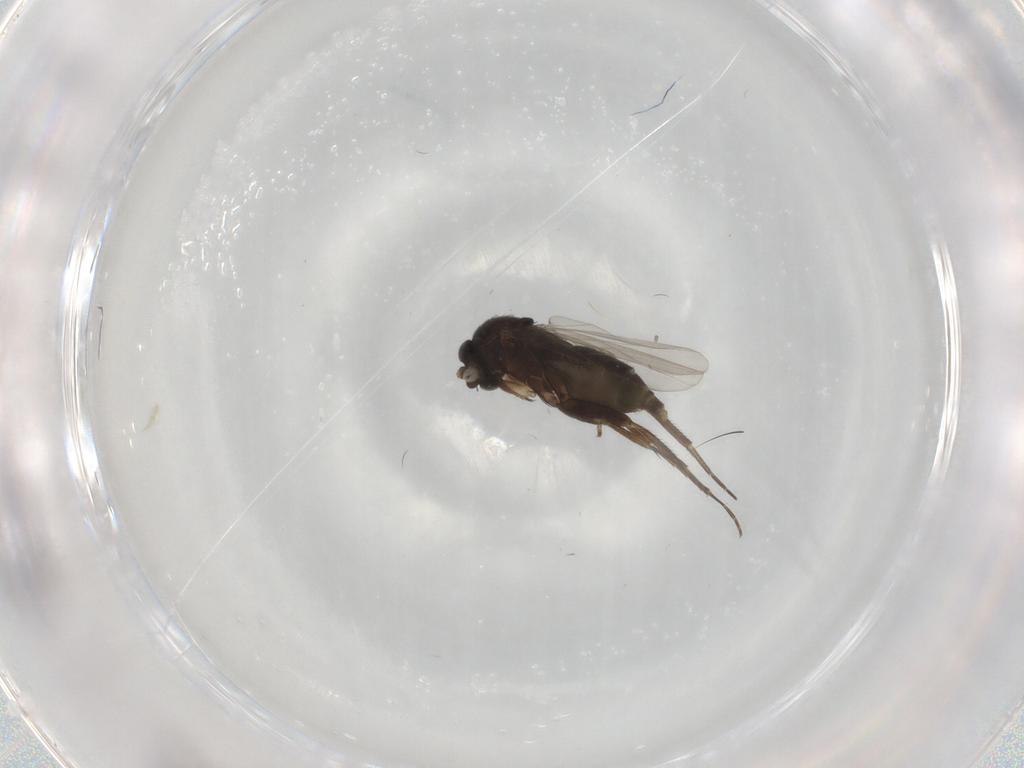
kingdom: Animalia
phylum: Arthropoda
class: Insecta
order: Diptera
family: Phoridae
